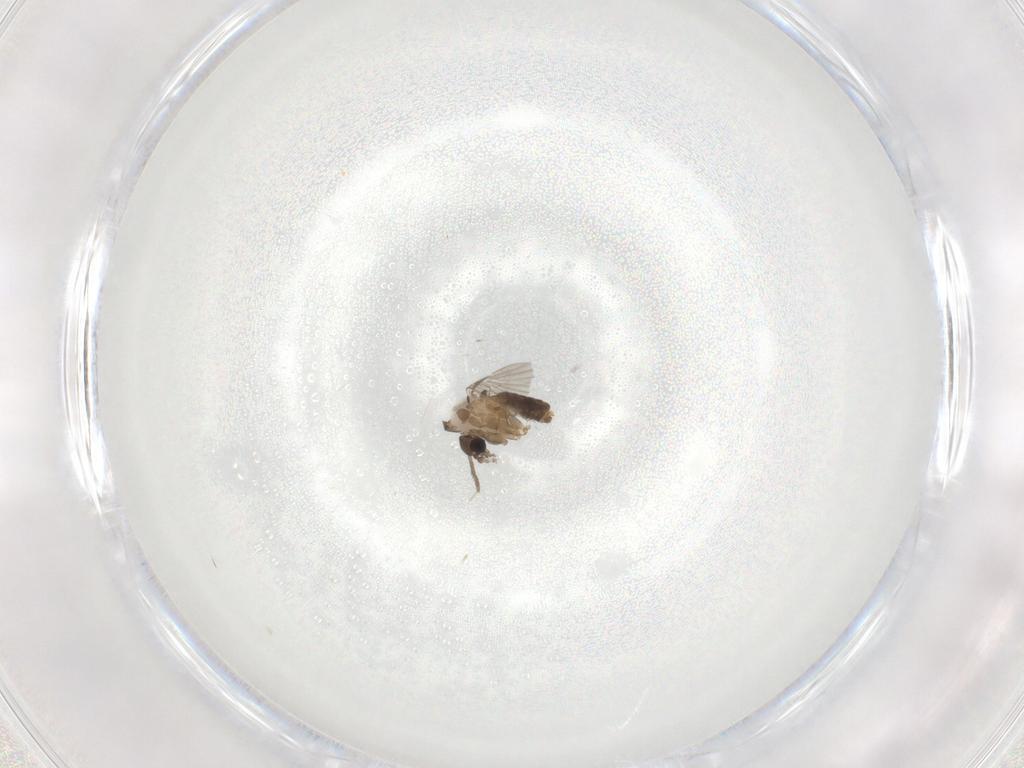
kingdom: Animalia
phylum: Arthropoda
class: Insecta
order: Diptera
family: Psychodidae
